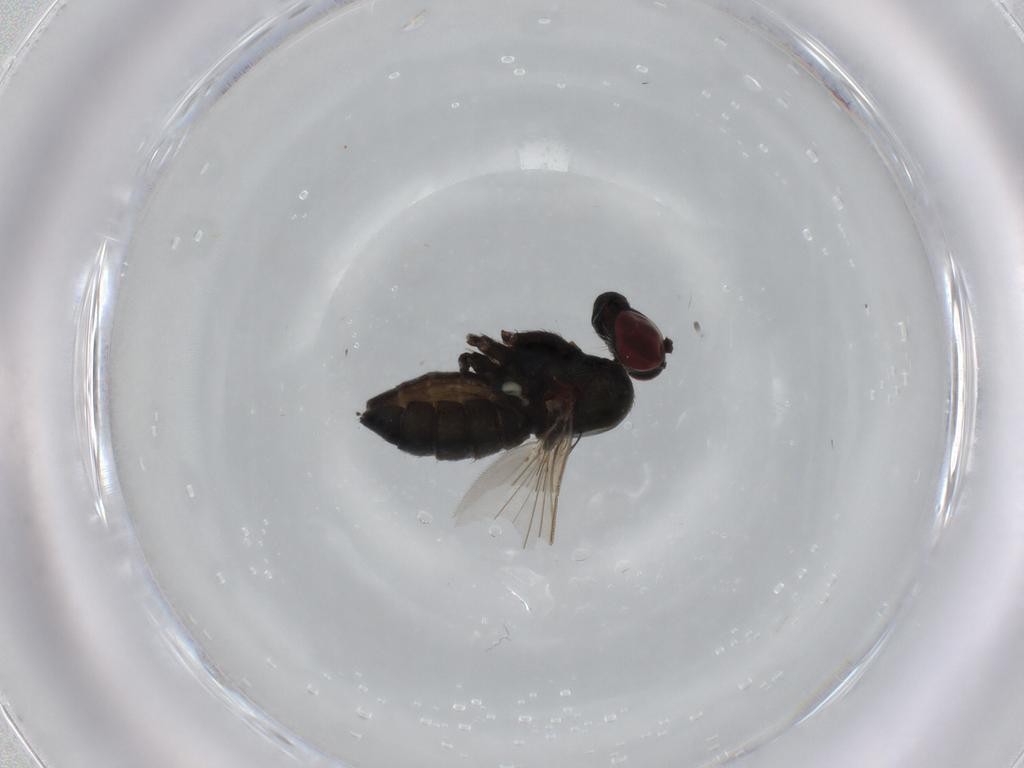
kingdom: Animalia
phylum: Arthropoda
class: Insecta
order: Diptera
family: Dolichopodidae
